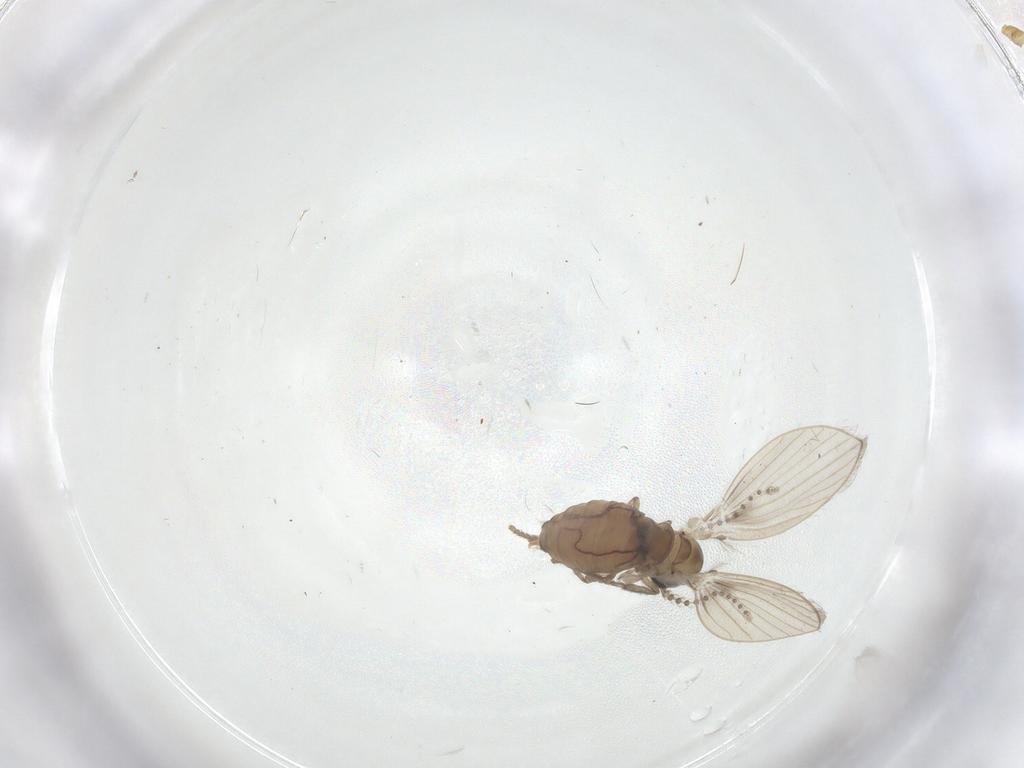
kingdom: Animalia
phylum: Arthropoda
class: Insecta
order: Diptera
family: Psychodidae
